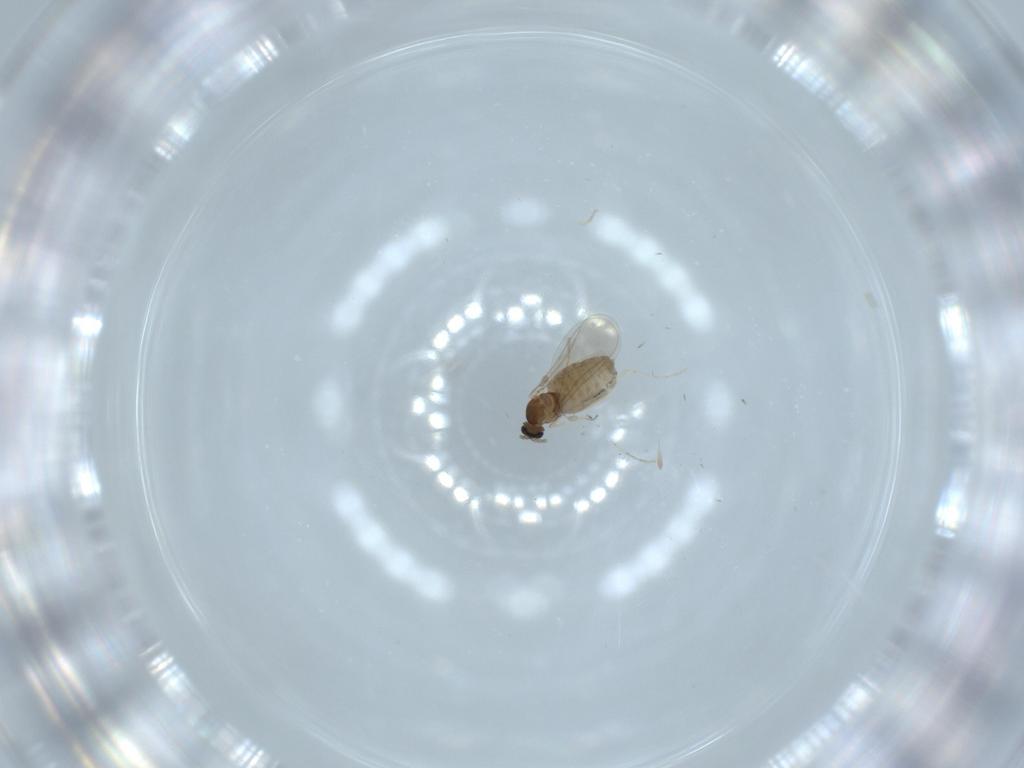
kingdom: Animalia
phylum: Arthropoda
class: Insecta
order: Diptera
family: Cecidomyiidae
